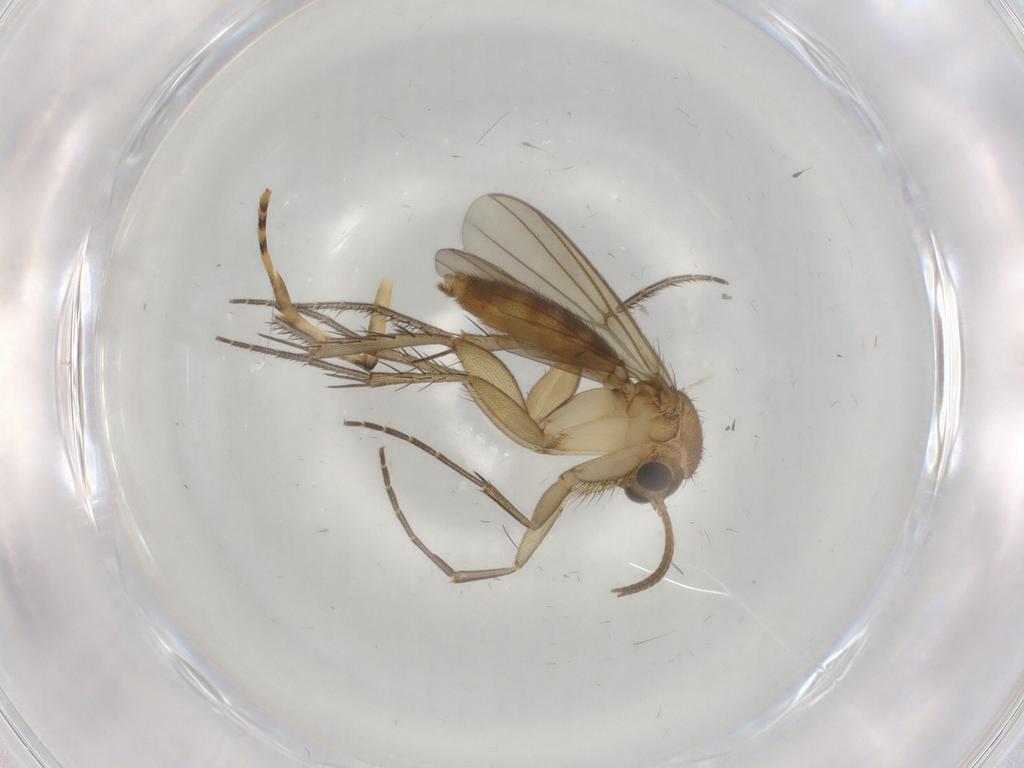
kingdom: Animalia
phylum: Arthropoda
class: Insecta
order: Diptera
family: Mycetophilidae
